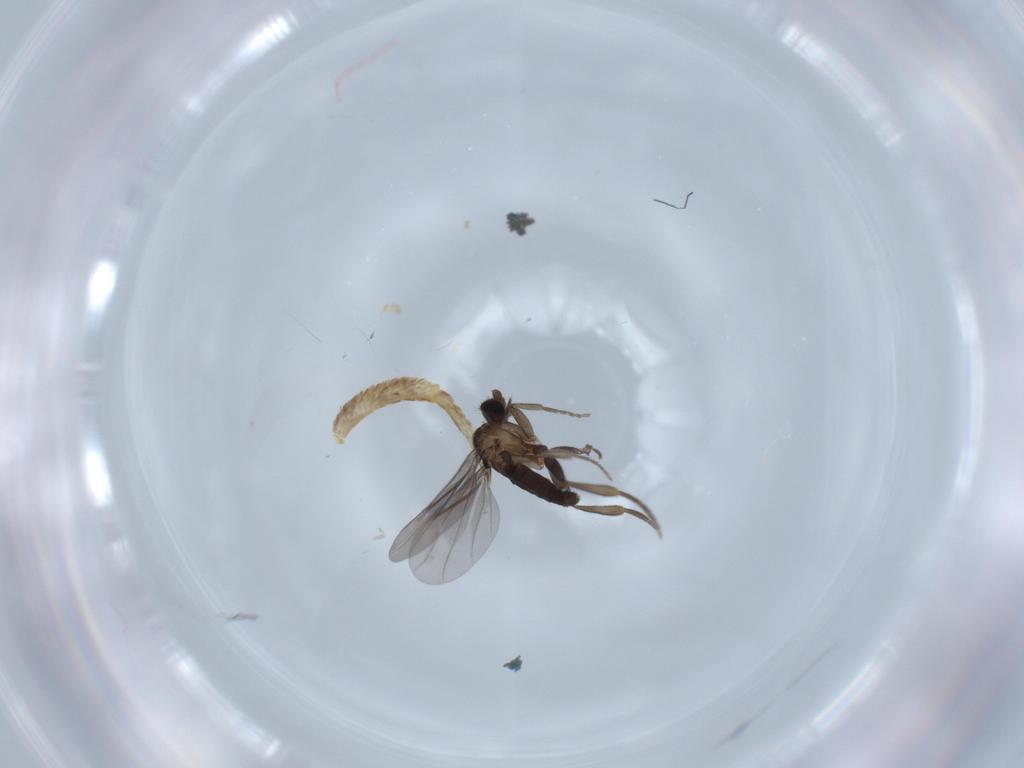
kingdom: Animalia
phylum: Arthropoda
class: Insecta
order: Diptera
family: Phoridae
